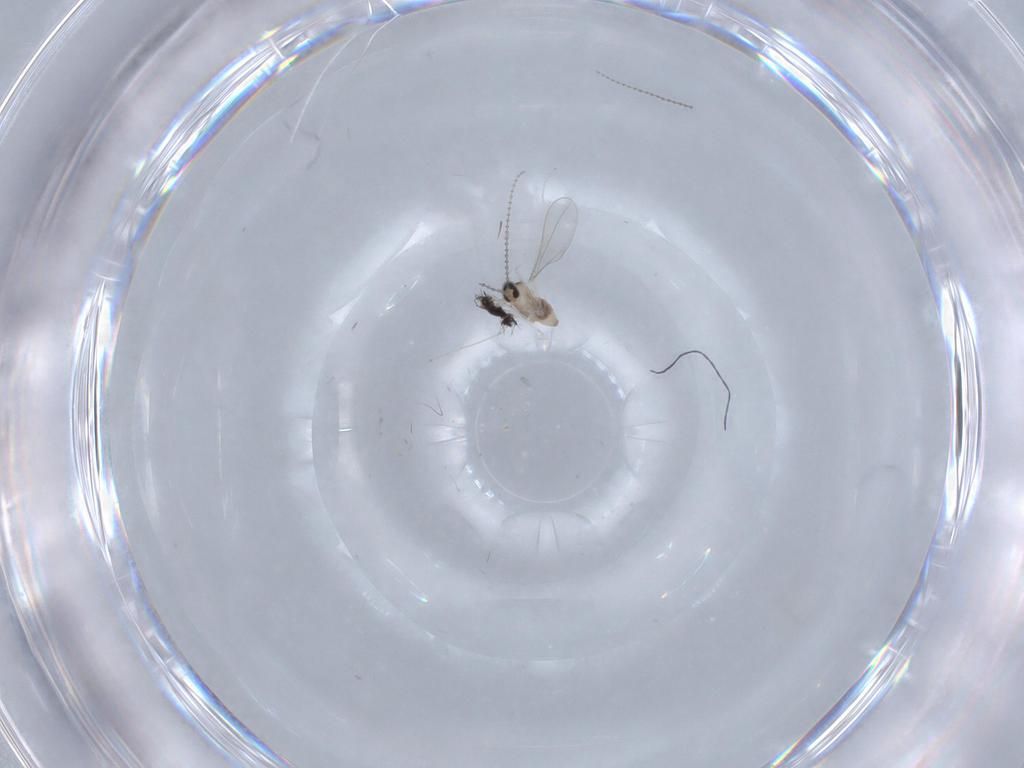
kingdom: Animalia
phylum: Arthropoda
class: Insecta
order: Diptera
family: Cecidomyiidae
